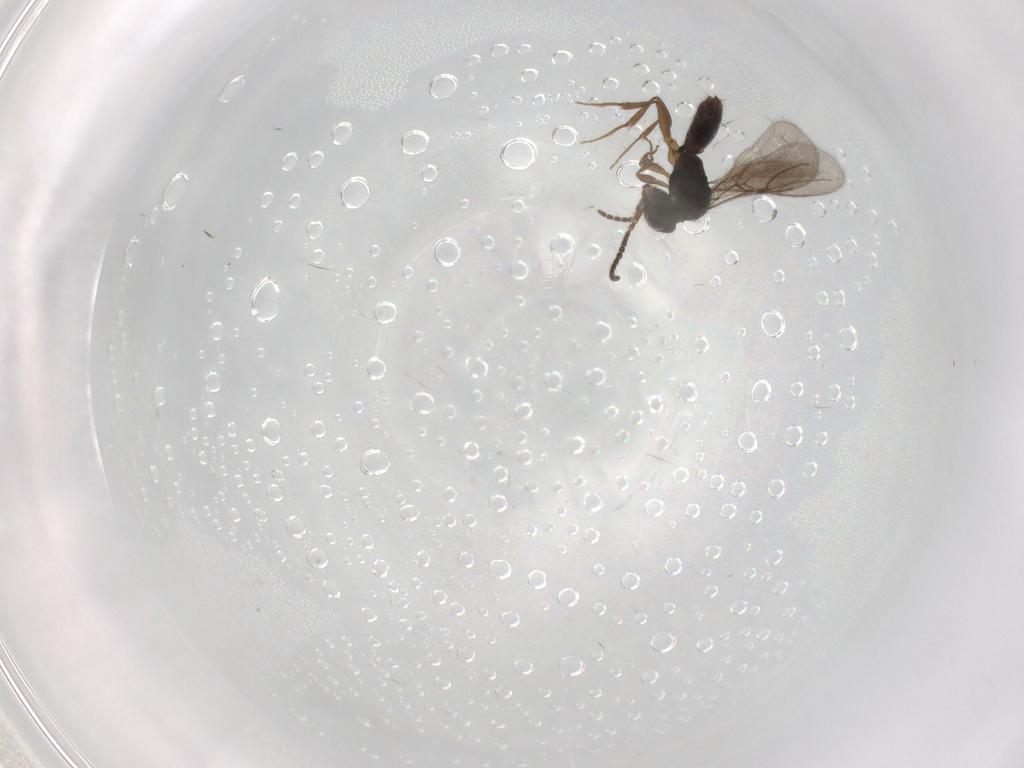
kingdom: Animalia
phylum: Arthropoda
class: Insecta
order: Hymenoptera
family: Bethylidae
